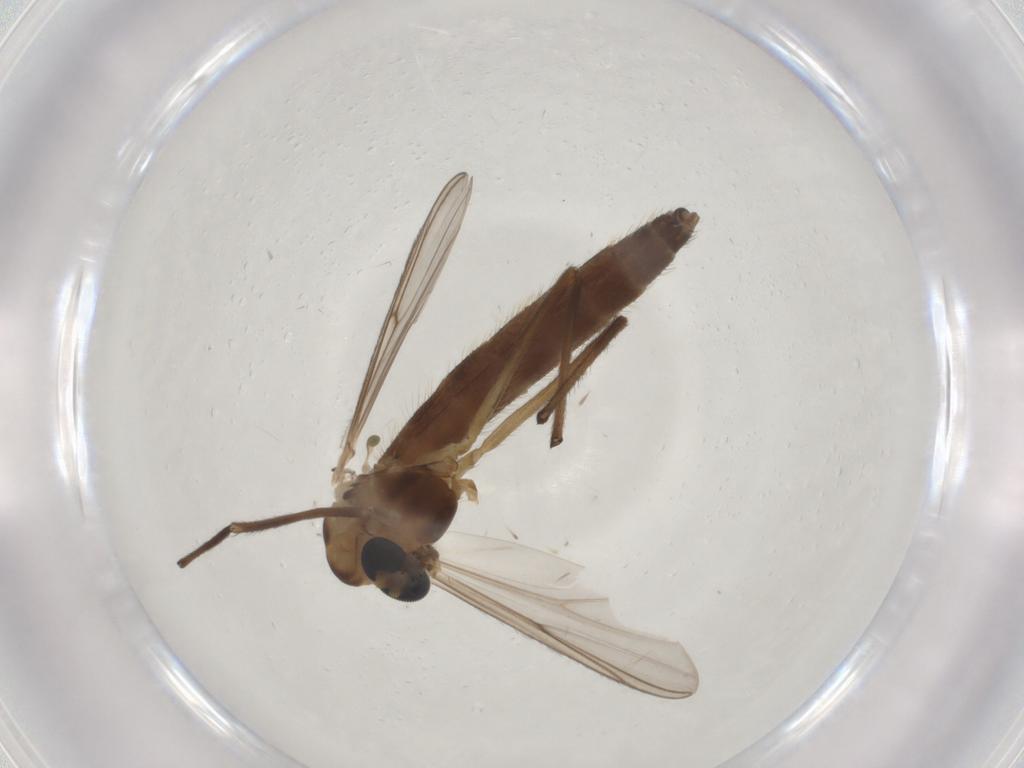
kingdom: Animalia
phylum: Arthropoda
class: Insecta
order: Diptera
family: Chironomidae
